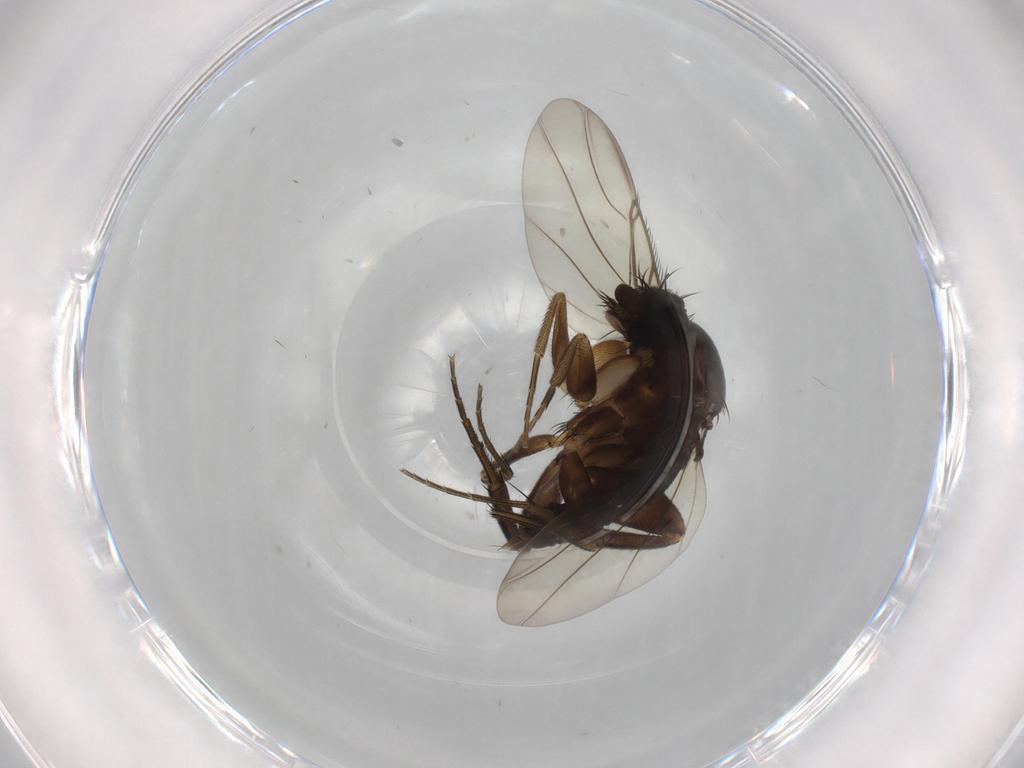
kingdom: Animalia
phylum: Arthropoda
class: Insecta
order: Diptera
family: Phoridae
